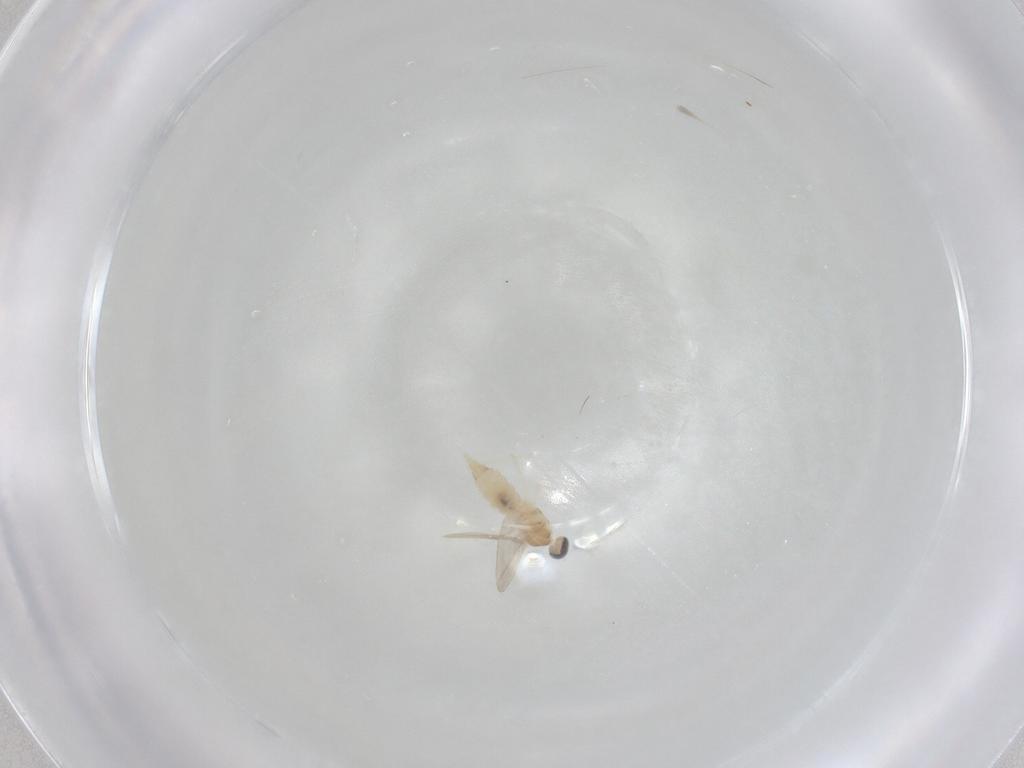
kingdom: Animalia
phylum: Arthropoda
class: Insecta
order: Diptera
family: Cecidomyiidae
